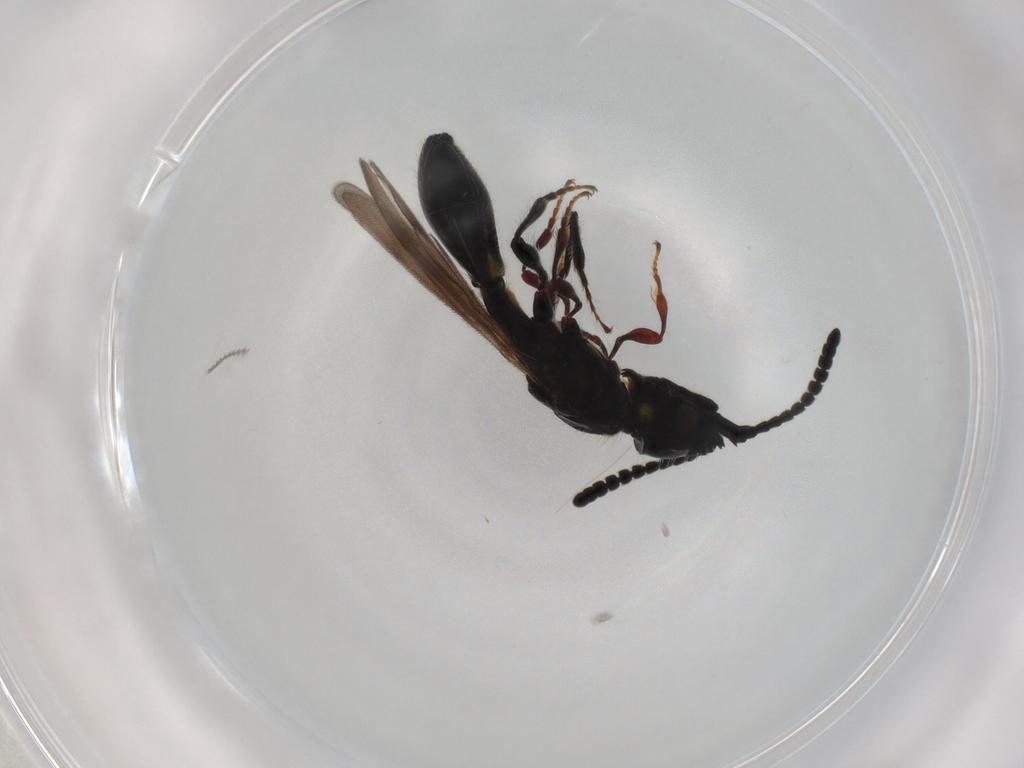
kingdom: Animalia
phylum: Arthropoda
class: Insecta
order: Hymenoptera
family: Diapriidae
